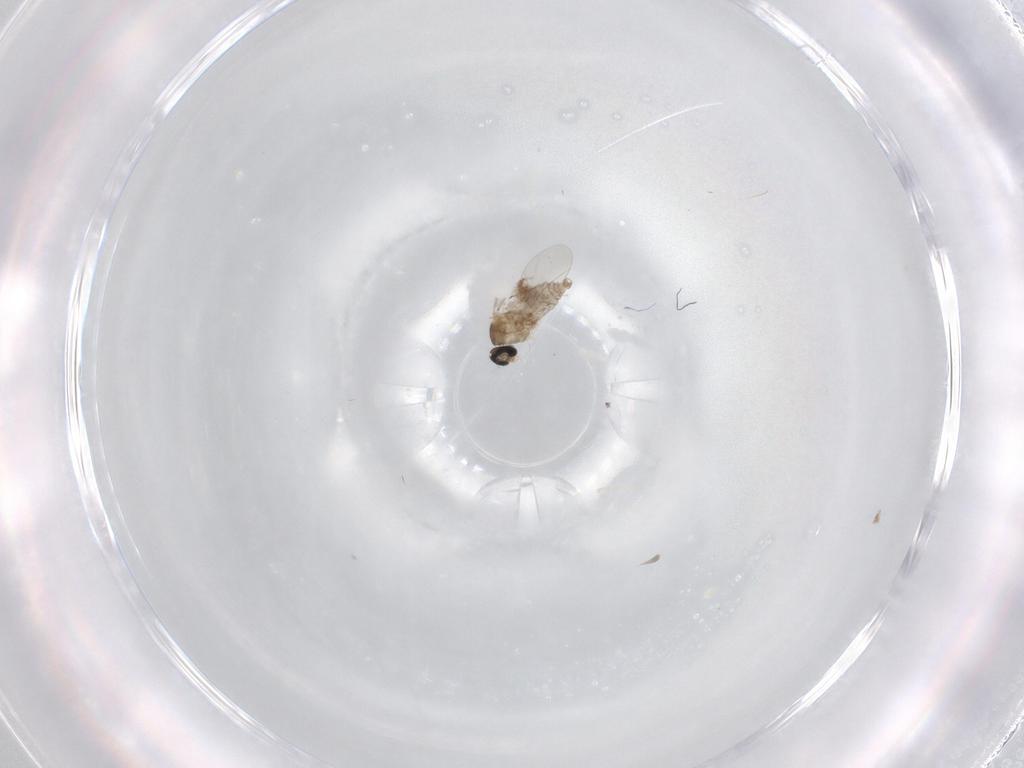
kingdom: Animalia
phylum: Arthropoda
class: Insecta
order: Diptera
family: Cecidomyiidae
